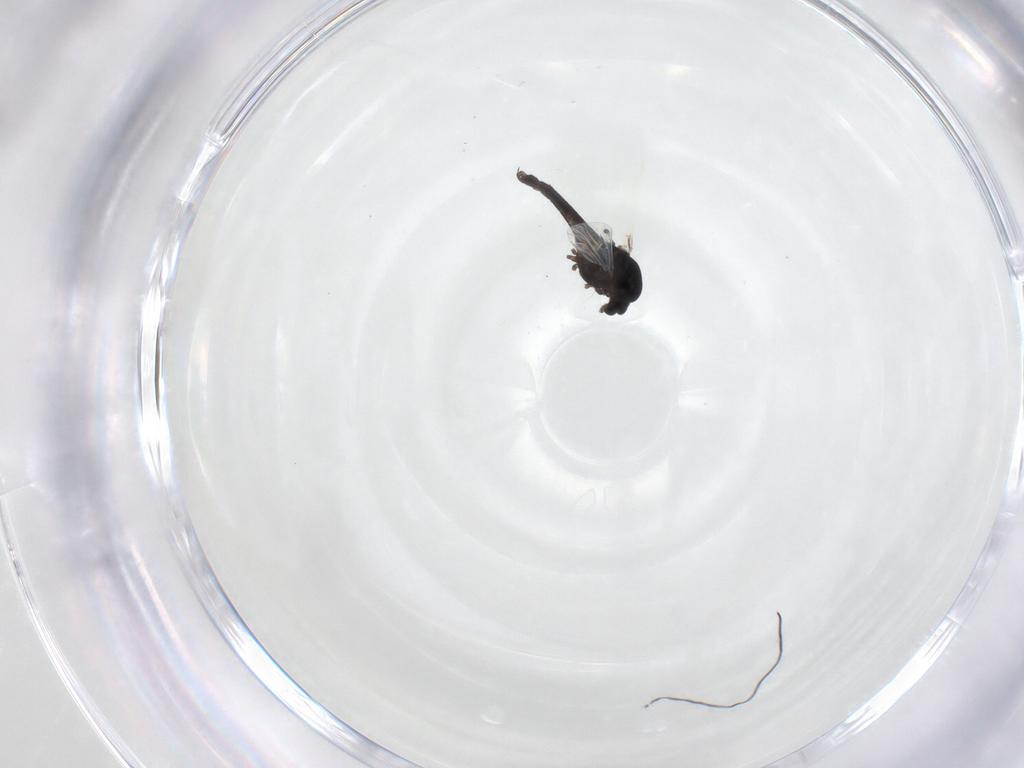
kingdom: Animalia
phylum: Arthropoda
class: Insecta
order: Diptera
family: Chironomidae
